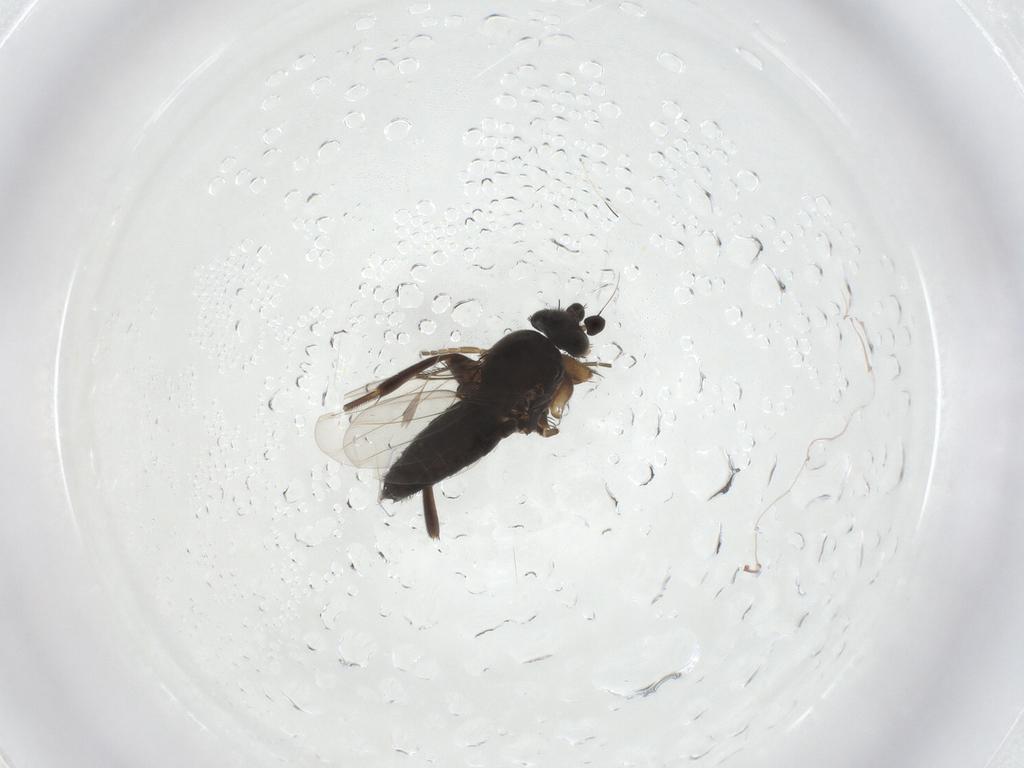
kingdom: Animalia
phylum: Arthropoda
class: Insecta
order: Diptera
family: Phoridae
